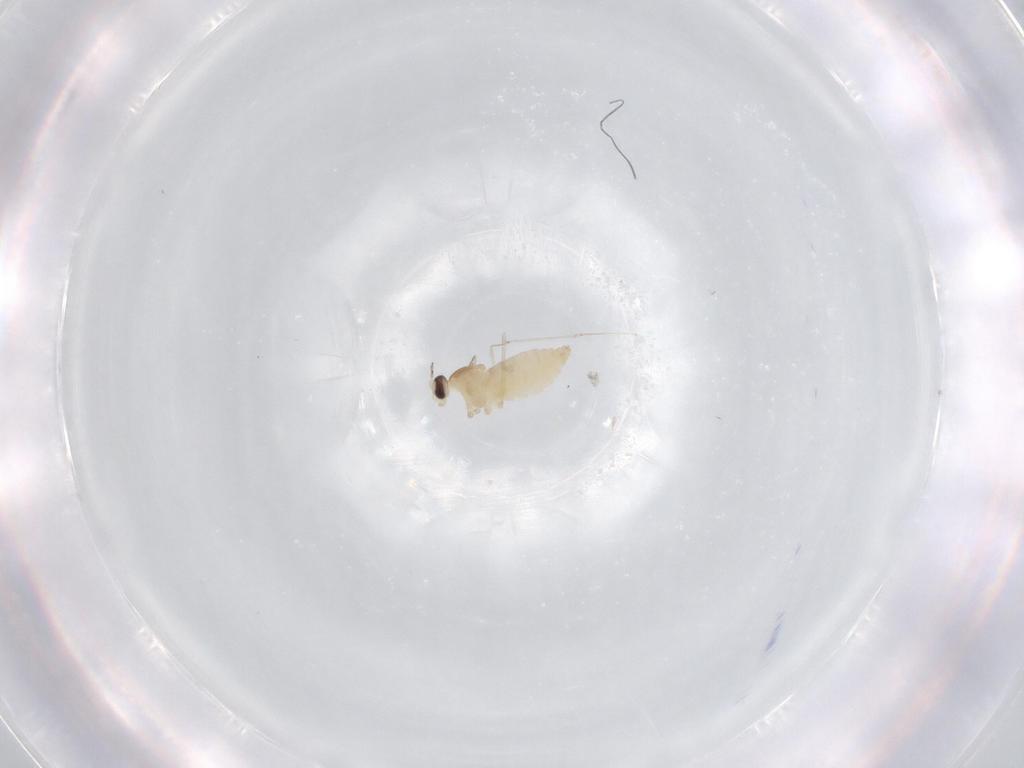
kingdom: Animalia
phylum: Arthropoda
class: Insecta
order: Diptera
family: Cecidomyiidae
